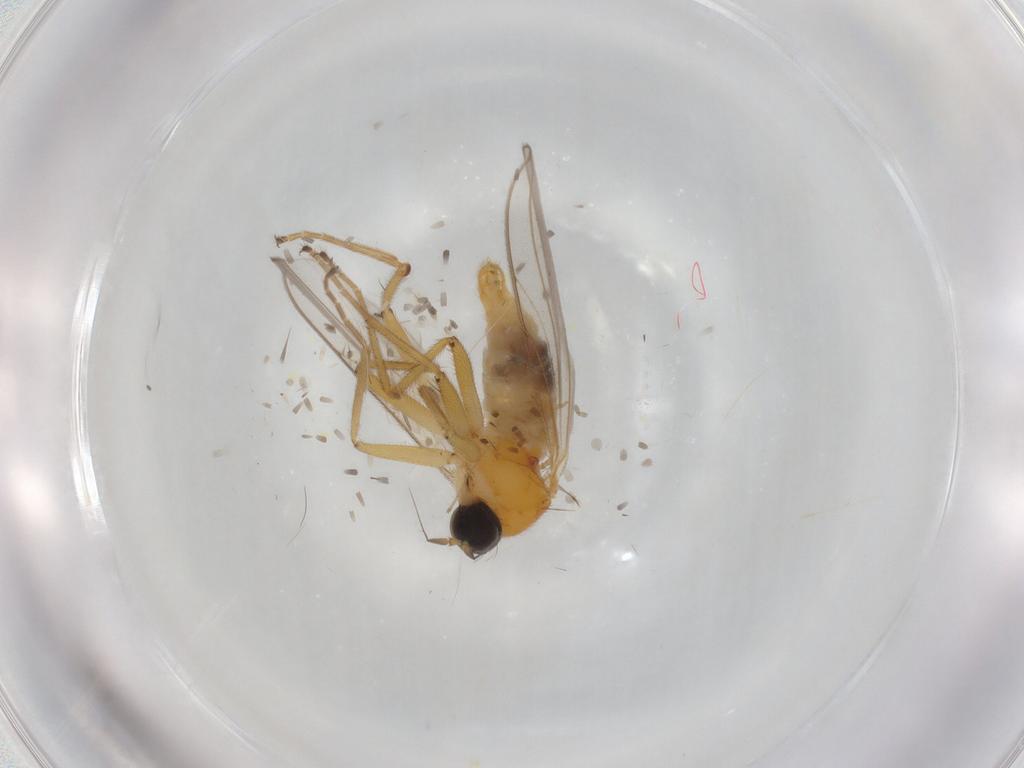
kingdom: Animalia
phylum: Arthropoda
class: Insecta
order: Diptera
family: Hybotidae
